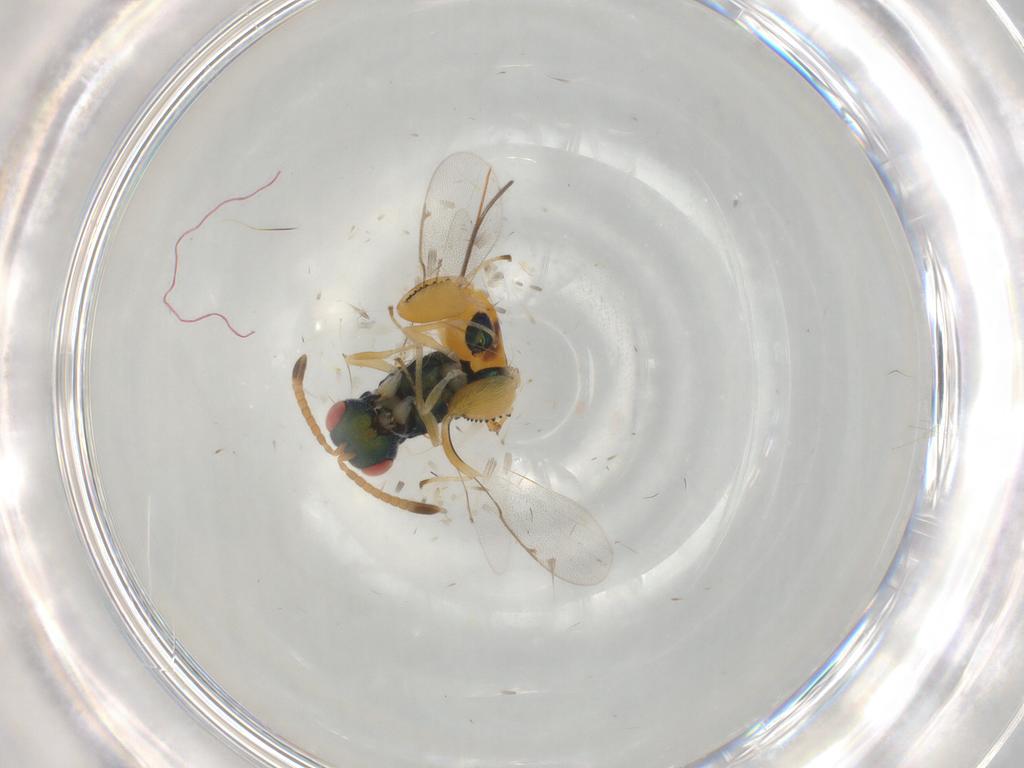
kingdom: Animalia
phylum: Arthropoda
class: Insecta
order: Hymenoptera
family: Torymidae
